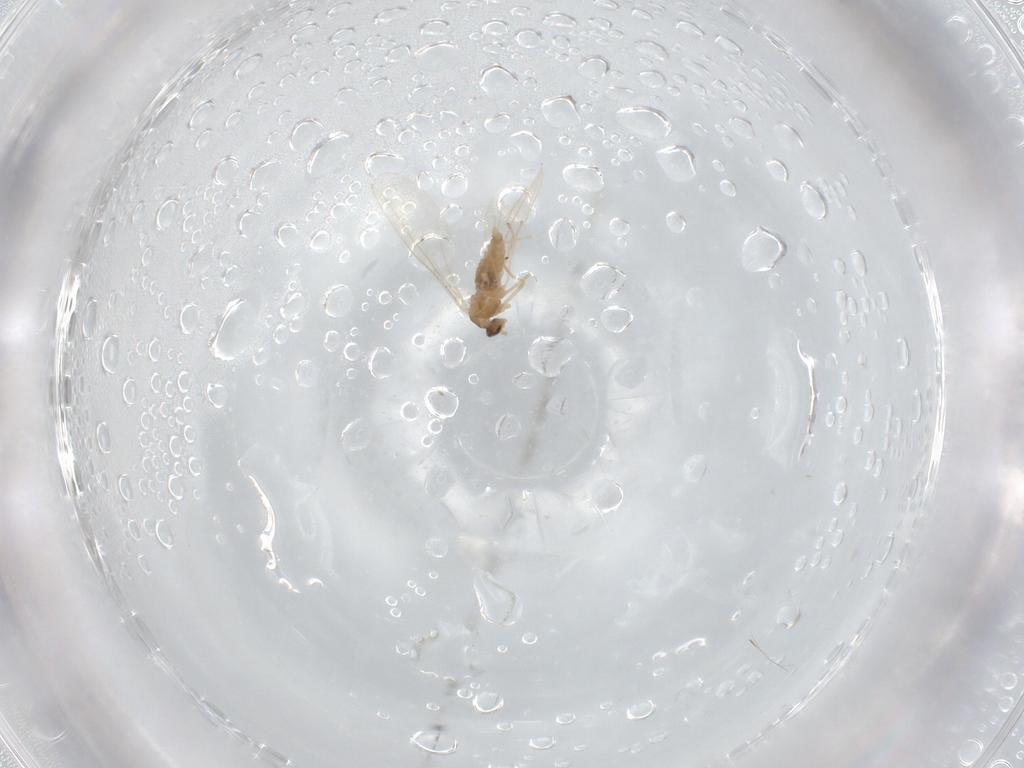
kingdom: Animalia
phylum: Arthropoda
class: Insecta
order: Diptera
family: Cecidomyiidae
